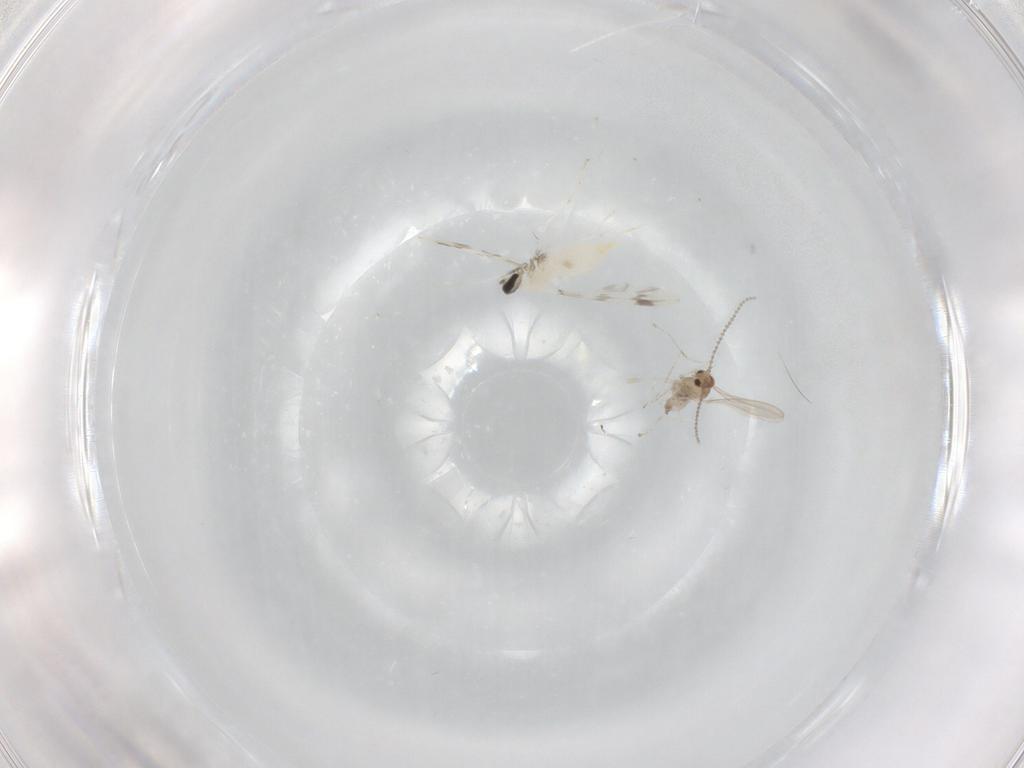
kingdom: Animalia
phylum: Arthropoda
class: Insecta
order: Diptera
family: Cecidomyiidae
